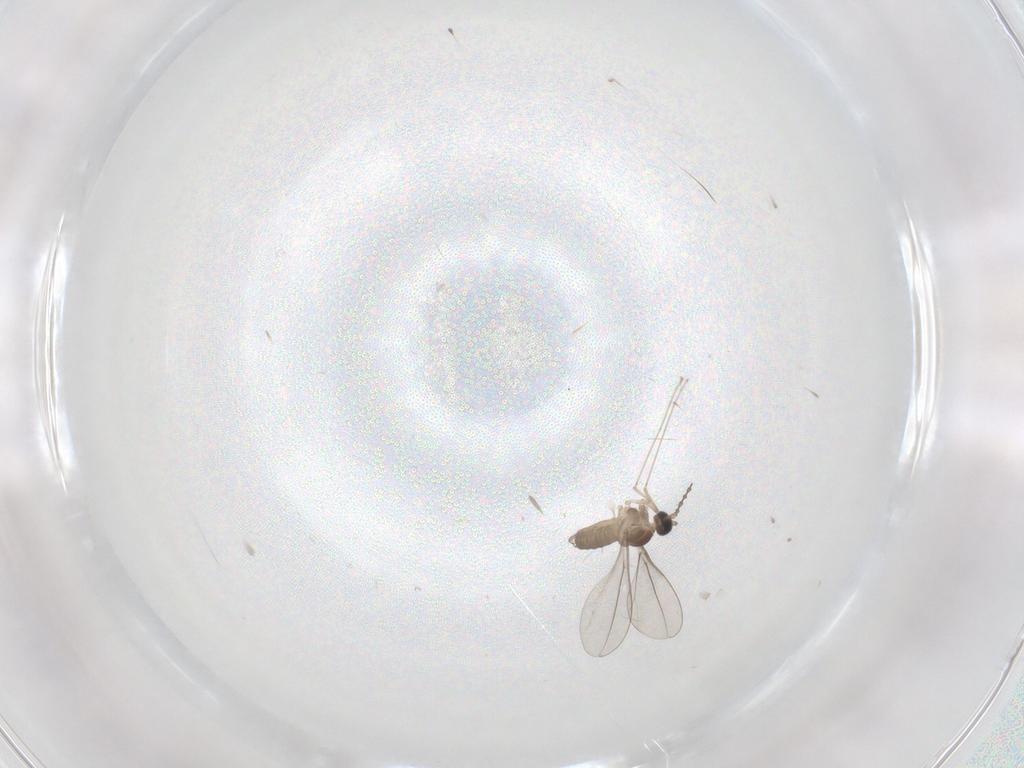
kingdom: Animalia
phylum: Arthropoda
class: Insecta
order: Diptera
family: Cecidomyiidae
